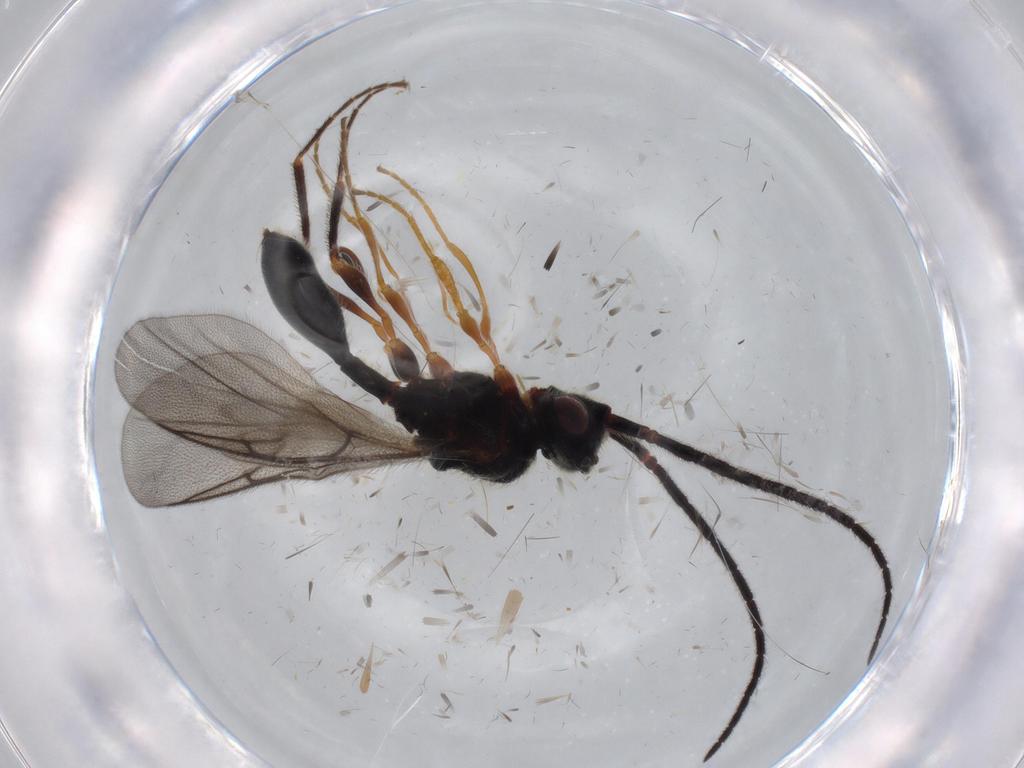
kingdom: Animalia
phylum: Arthropoda
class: Insecta
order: Hymenoptera
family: Diapriidae
